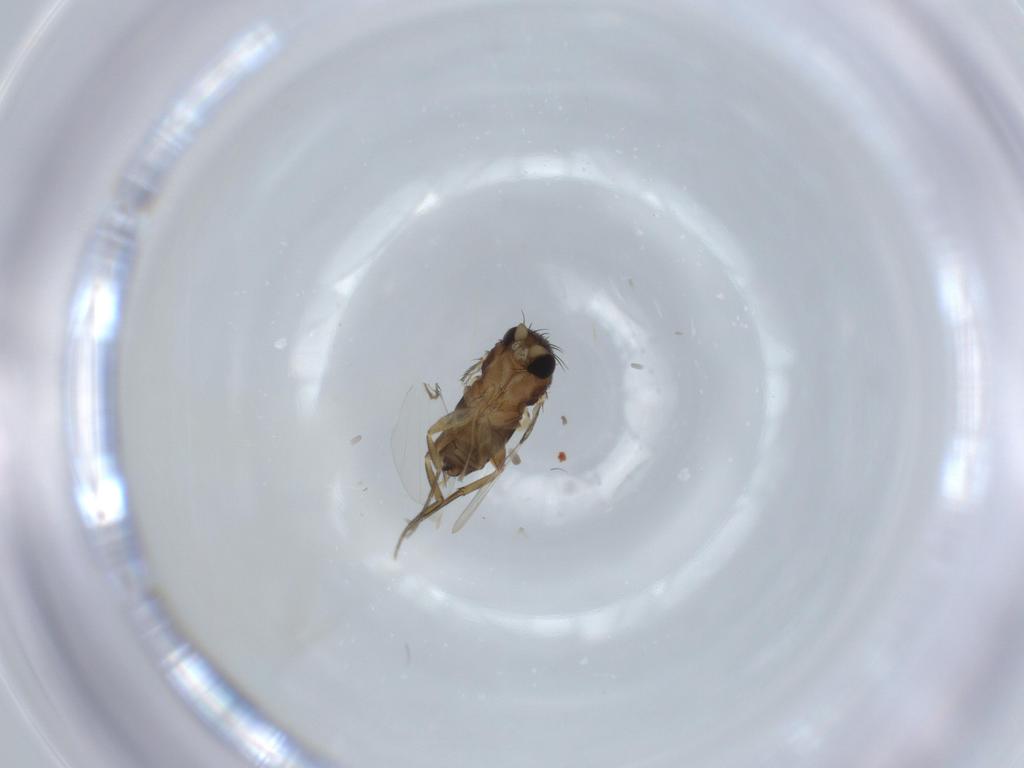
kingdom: Animalia
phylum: Arthropoda
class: Insecta
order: Diptera
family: Phoridae
